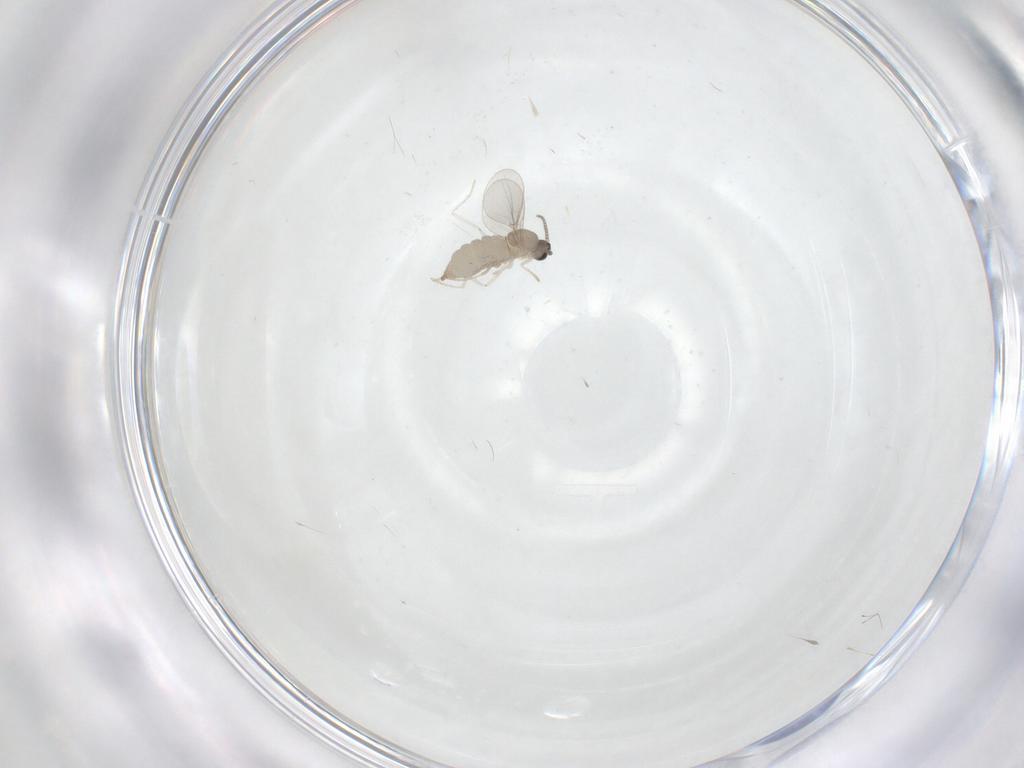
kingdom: Animalia
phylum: Arthropoda
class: Insecta
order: Diptera
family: Cecidomyiidae
